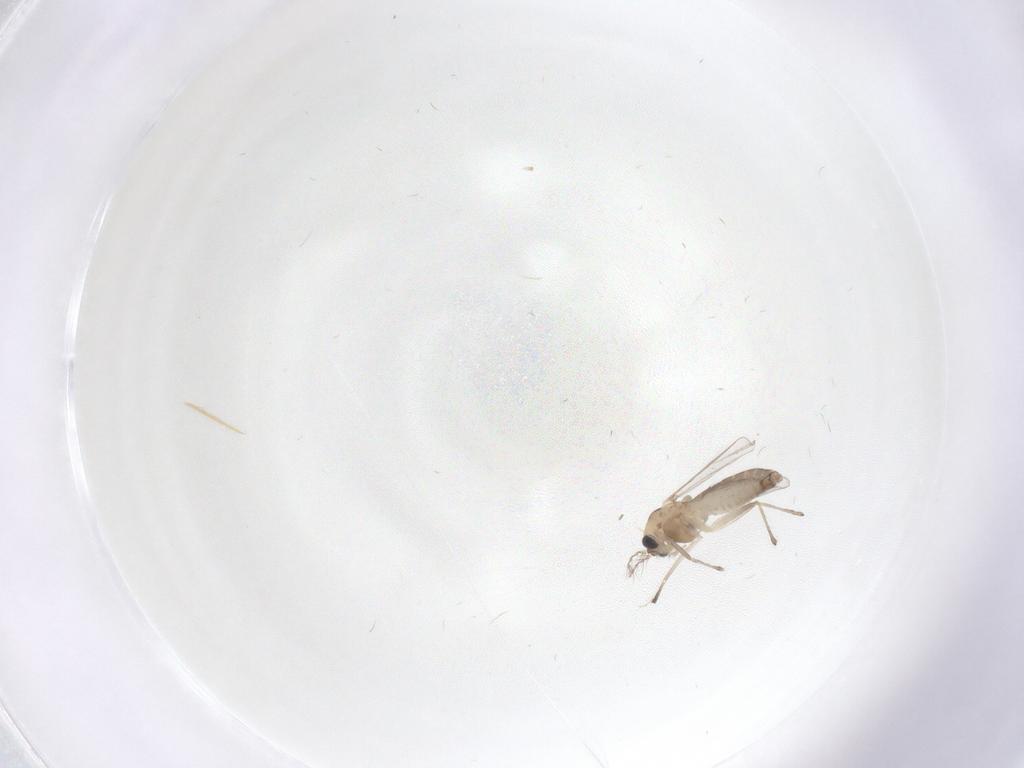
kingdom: Animalia
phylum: Arthropoda
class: Insecta
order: Diptera
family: Chironomidae
